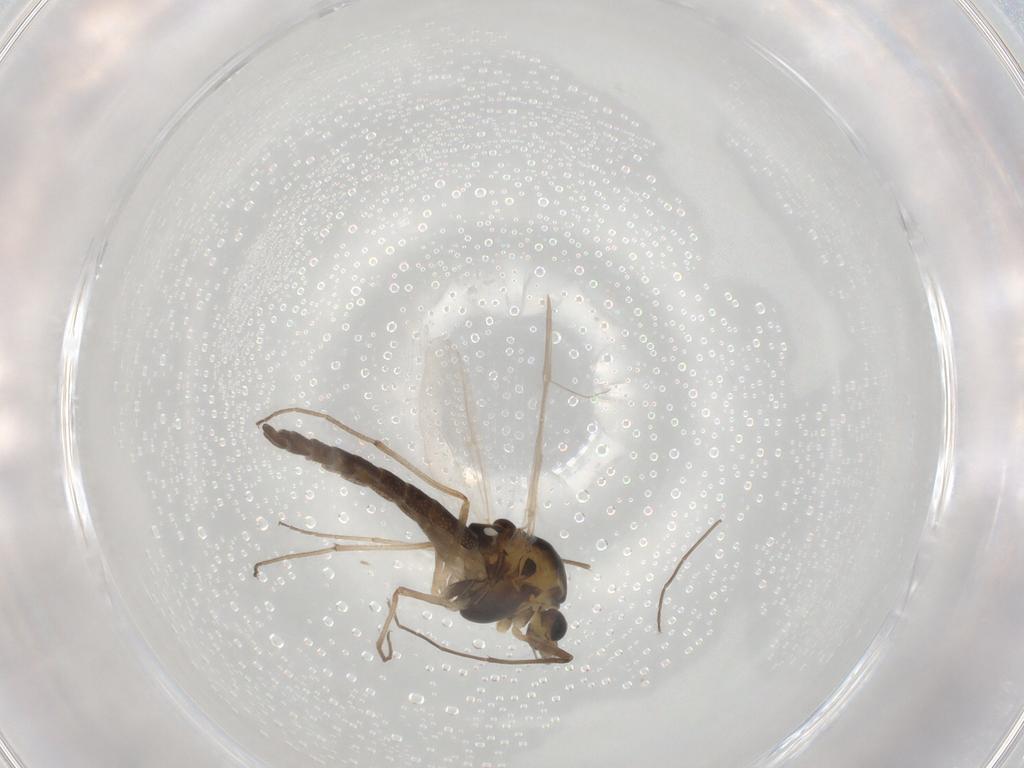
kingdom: Animalia
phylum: Arthropoda
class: Insecta
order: Diptera
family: Chironomidae
